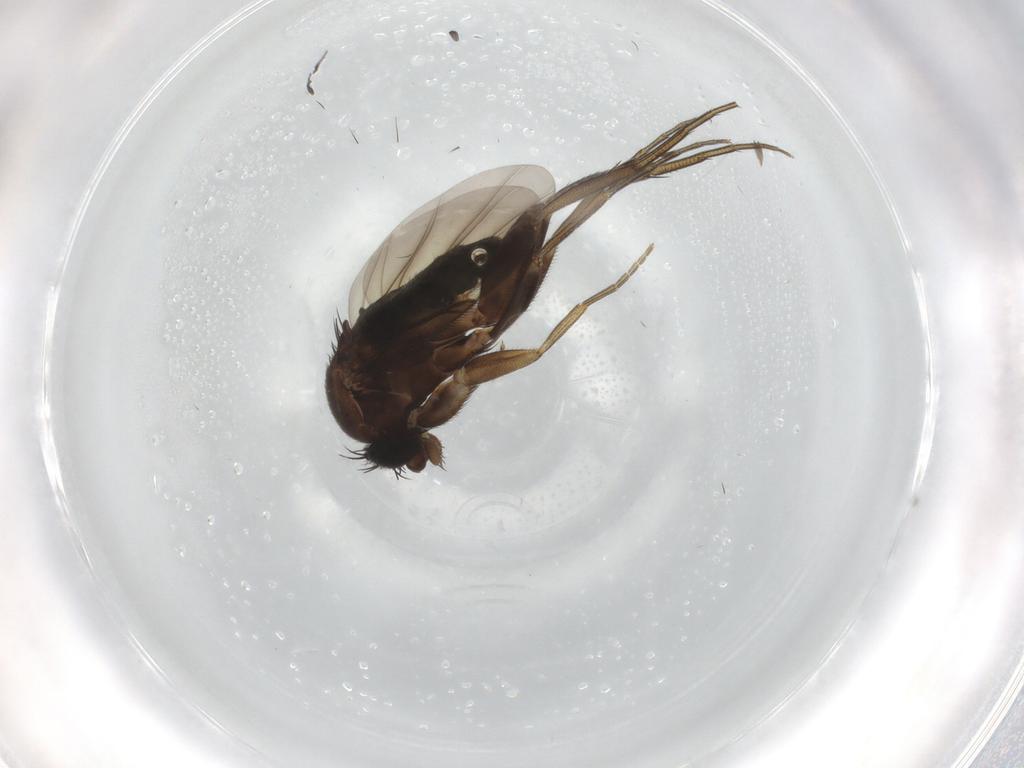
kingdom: Animalia
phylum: Arthropoda
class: Insecta
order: Diptera
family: Phoridae
